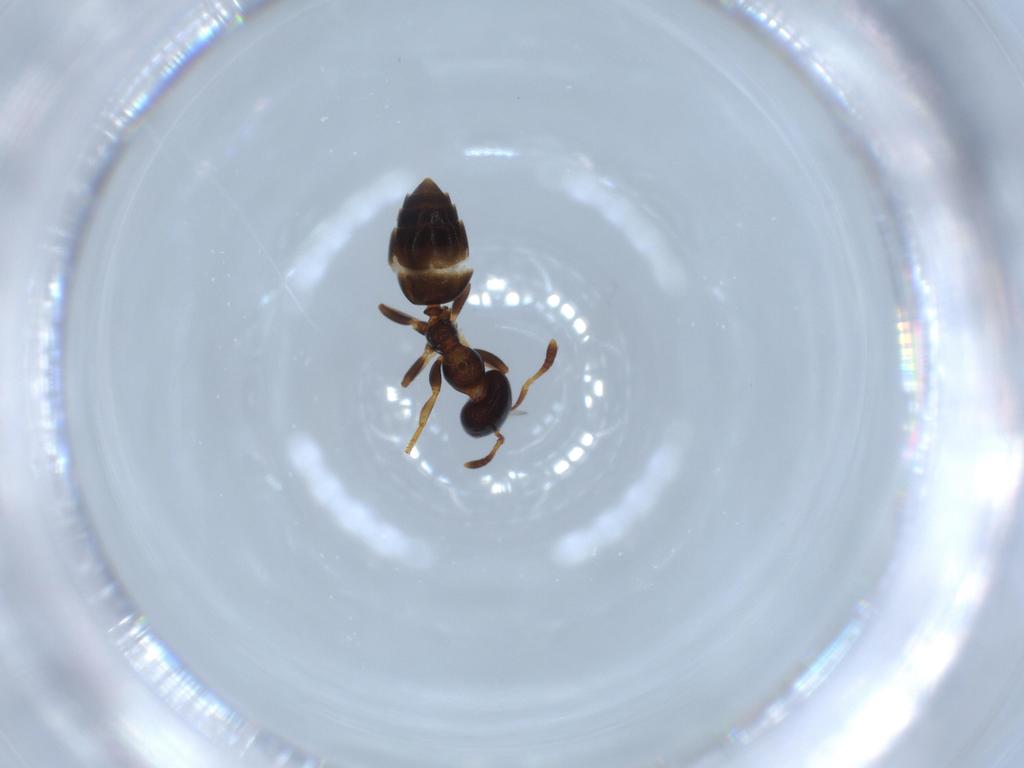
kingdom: Animalia
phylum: Arthropoda
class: Insecta
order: Hymenoptera
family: Formicidae
